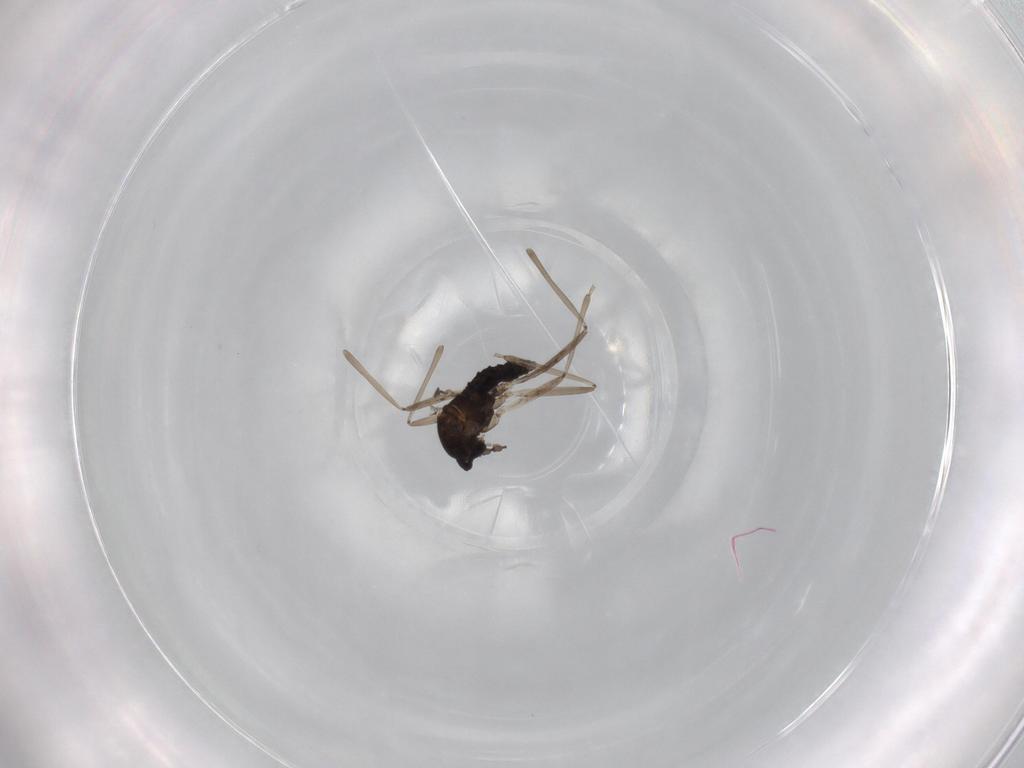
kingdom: Animalia
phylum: Arthropoda
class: Insecta
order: Diptera
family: Cecidomyiidae
